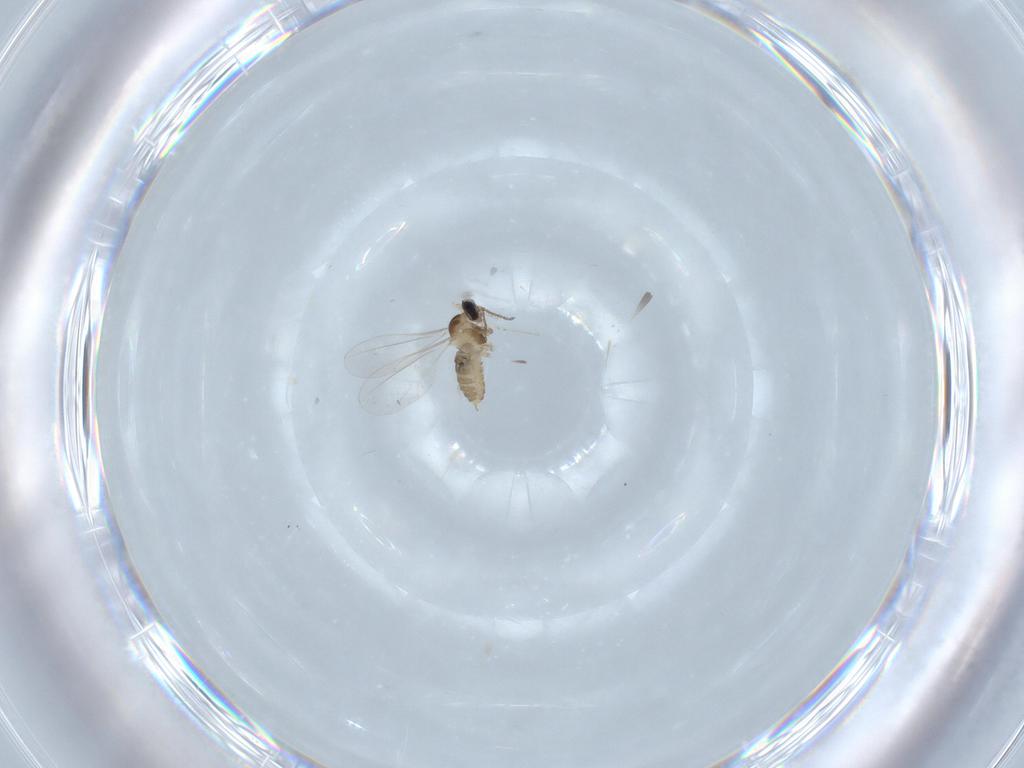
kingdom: Animalia
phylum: Arthropoda
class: Insecta
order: Diptera
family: Cecidomyiidae
